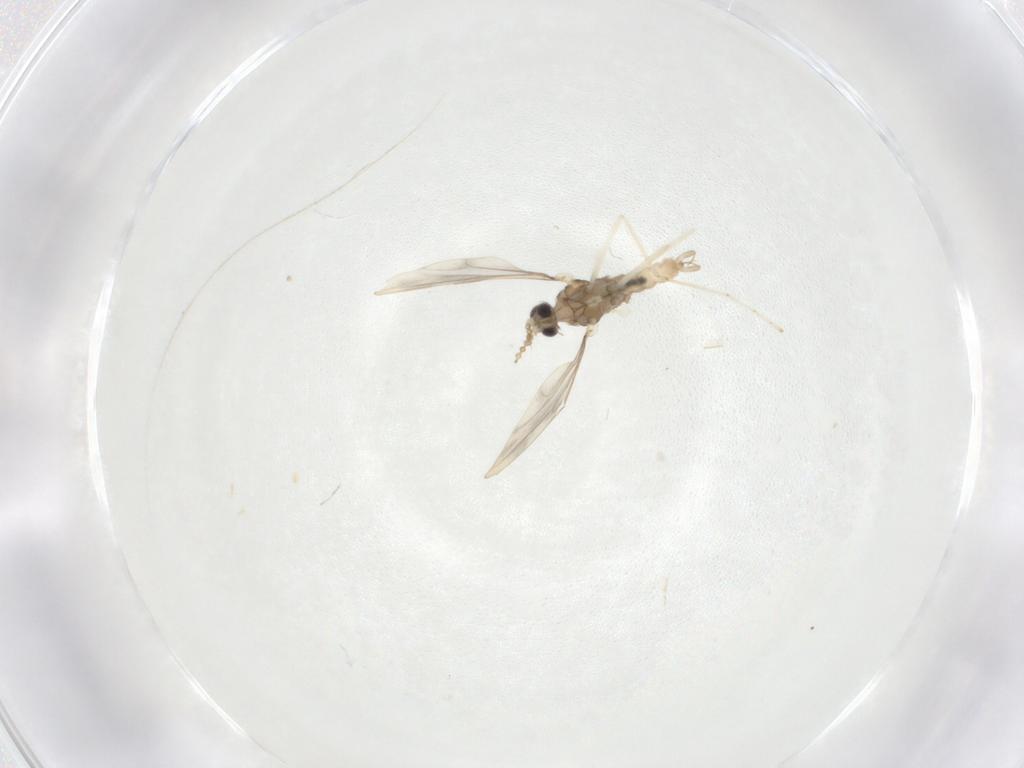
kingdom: Animalia
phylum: Arthropoda
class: Insecta
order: Diptera
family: Cecidomyiidae
